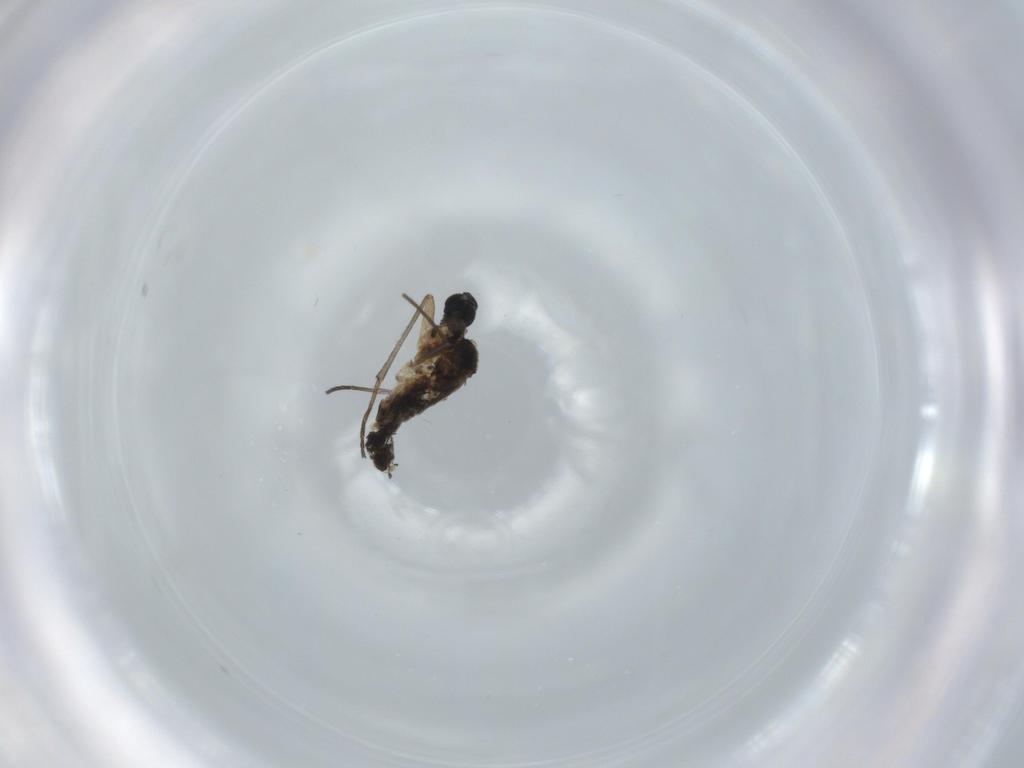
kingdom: Animalia
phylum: Arthropoda
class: Insecta
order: Diptera
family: Sciaridae
